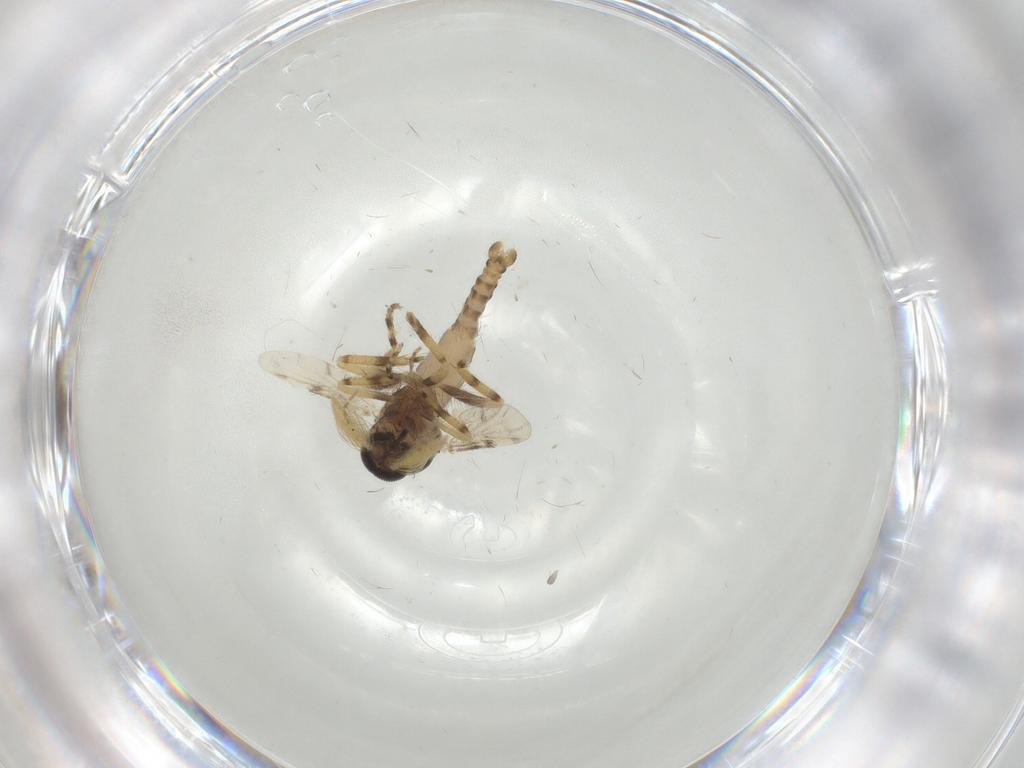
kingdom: Animalia
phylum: Arthropoda
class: Insecta
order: Diptera
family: Ceratopogonidae
